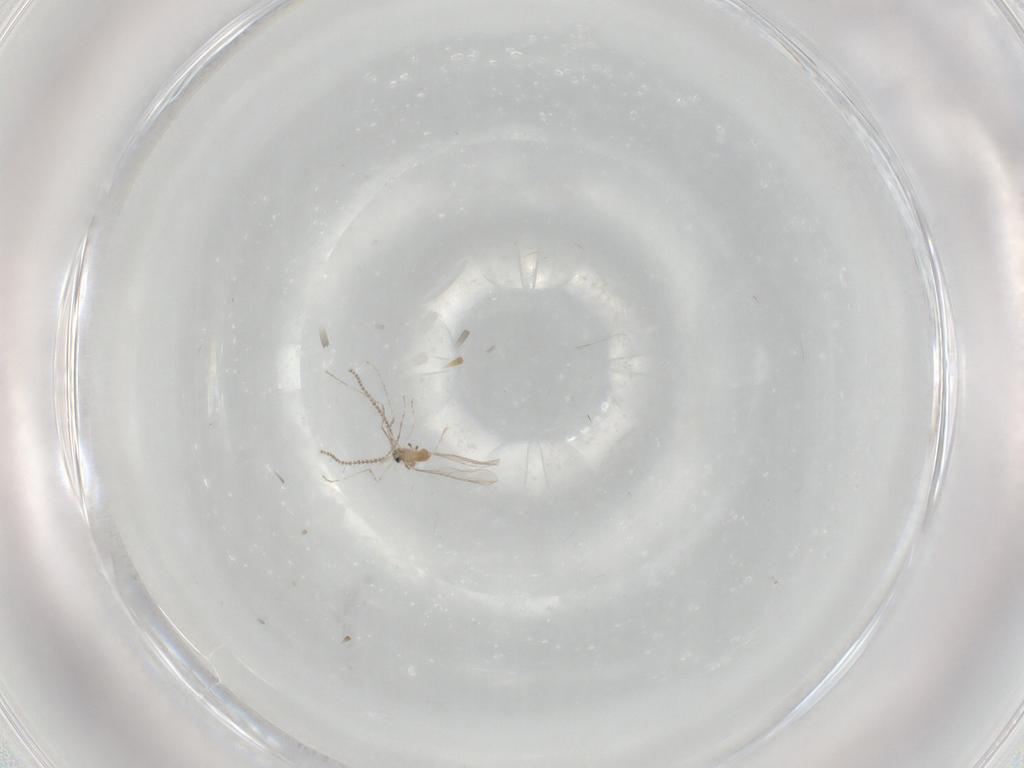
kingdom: Animalia
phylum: Arthropoda
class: Insecta
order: Diptera
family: Cecidomyiidae
